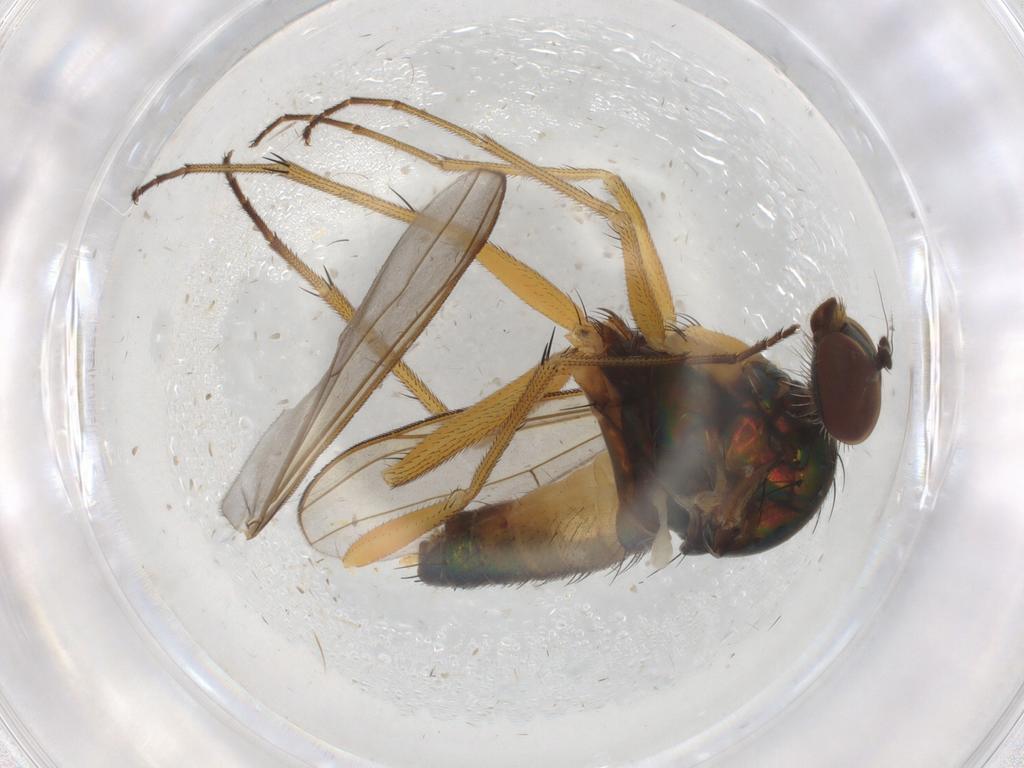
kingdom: Animalia
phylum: Arthropoda
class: Insecta
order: Diptera
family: Dolichopodidae
